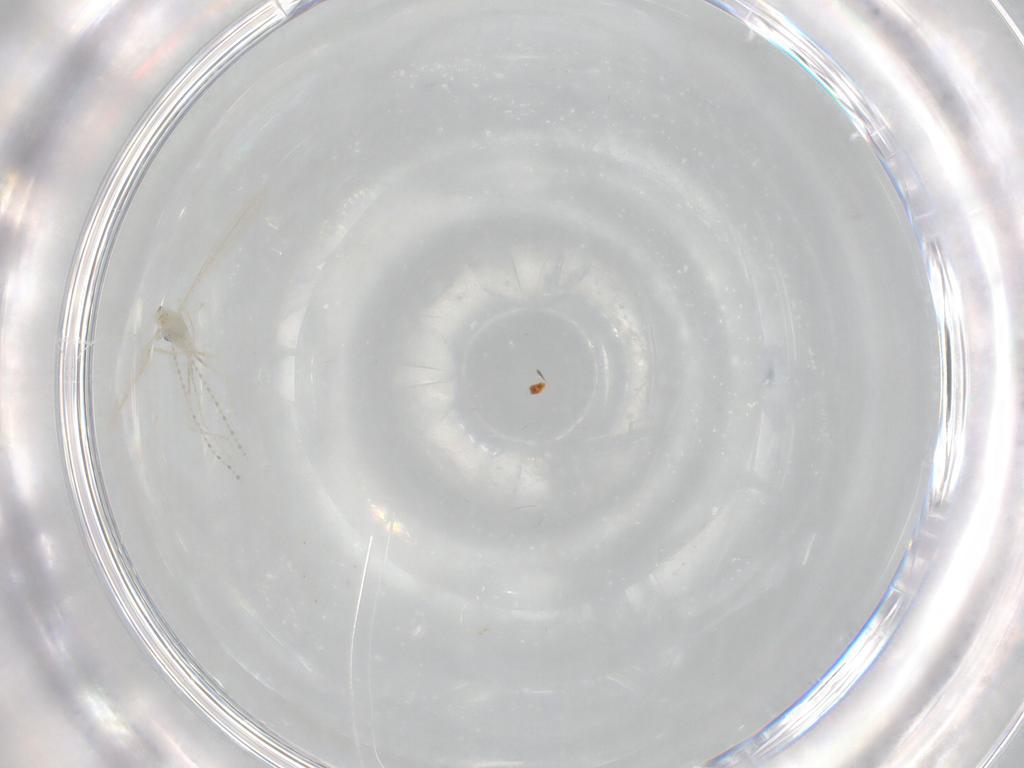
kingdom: Animalia
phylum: Arthropoda
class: Insecta
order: Diptera
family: Cecidomyiidae
